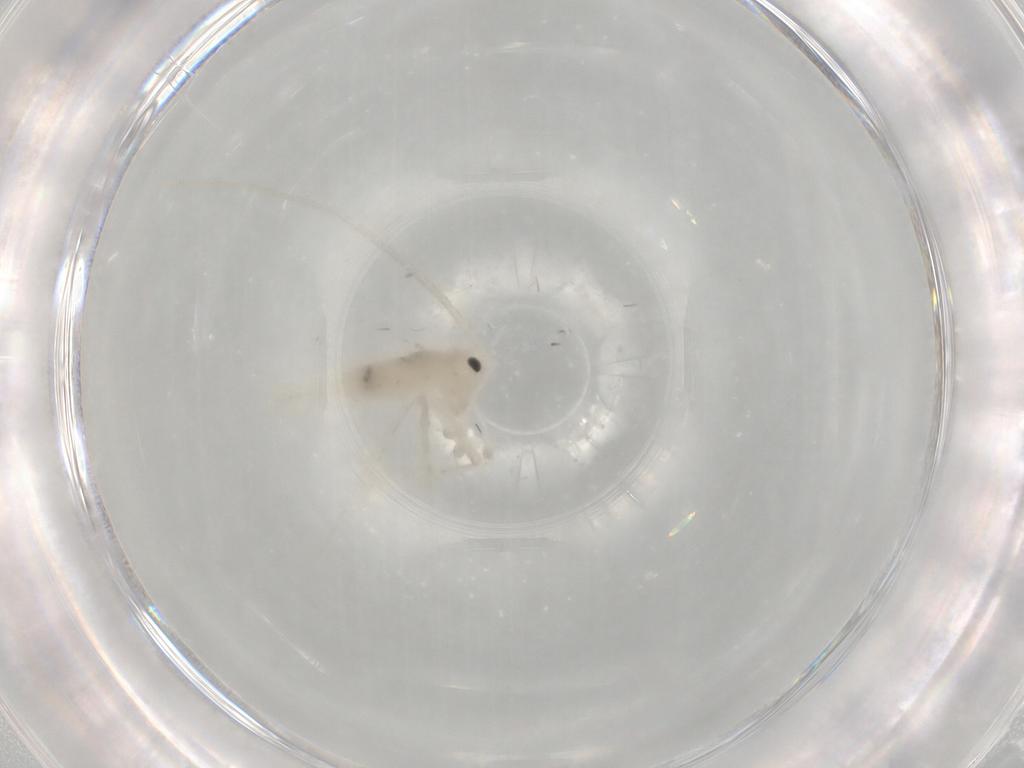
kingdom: Animalia
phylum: Arthropoda
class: Insecta
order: Orthoptera
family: Trigonidiidae
